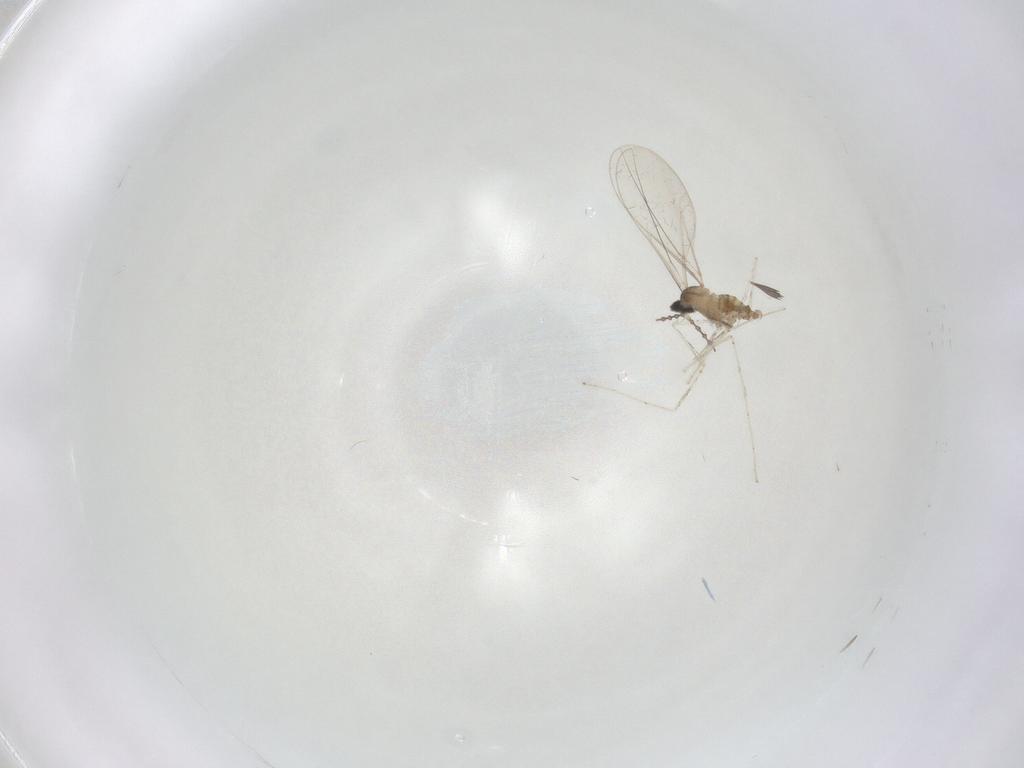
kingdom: Animalia
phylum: Arthropoda
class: Insecta
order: Diptera
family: Cecidomyiidae
